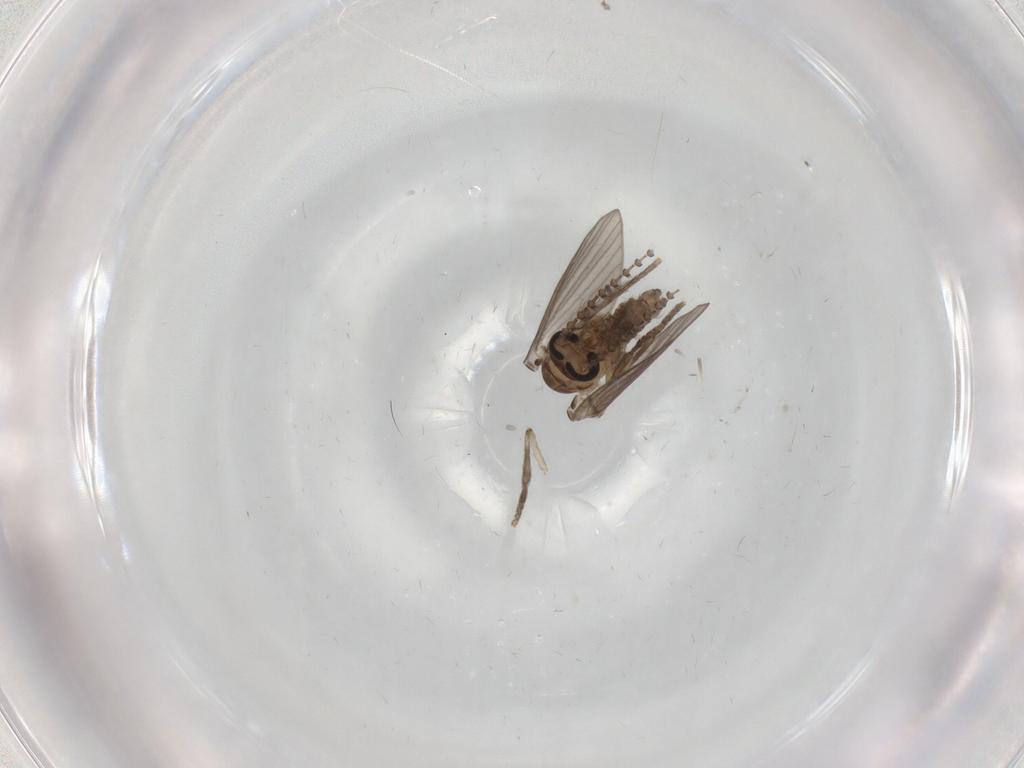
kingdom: Animalia
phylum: Arthropoda
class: Insecta
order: Diptera
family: Psychodidae
